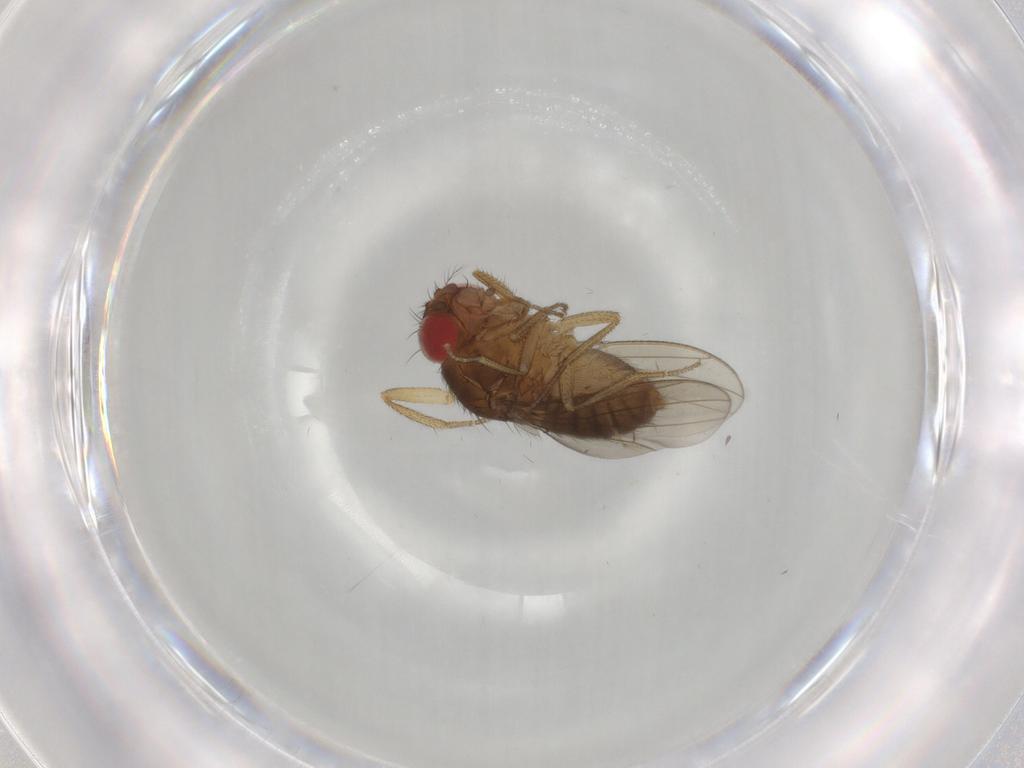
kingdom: Animalia
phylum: Arthropoda
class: Insecta
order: Diptera
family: Drosophilidae
